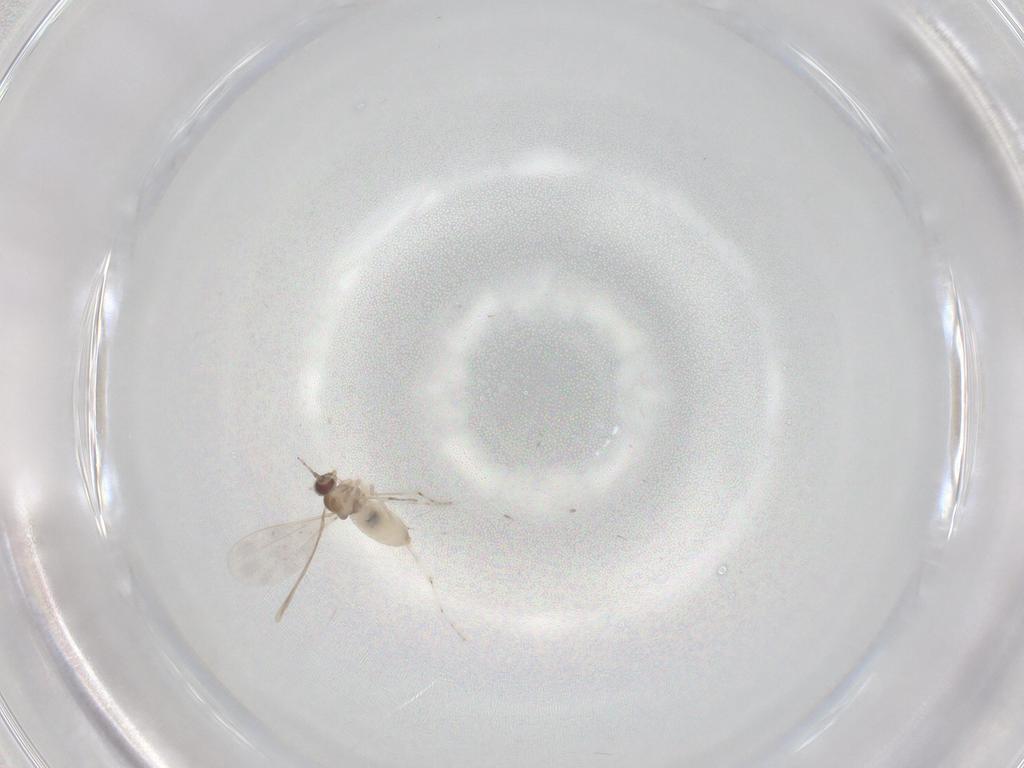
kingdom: Animalia
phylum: Arthropoda
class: Insecta
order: Diptera
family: Cecidomyiidae
